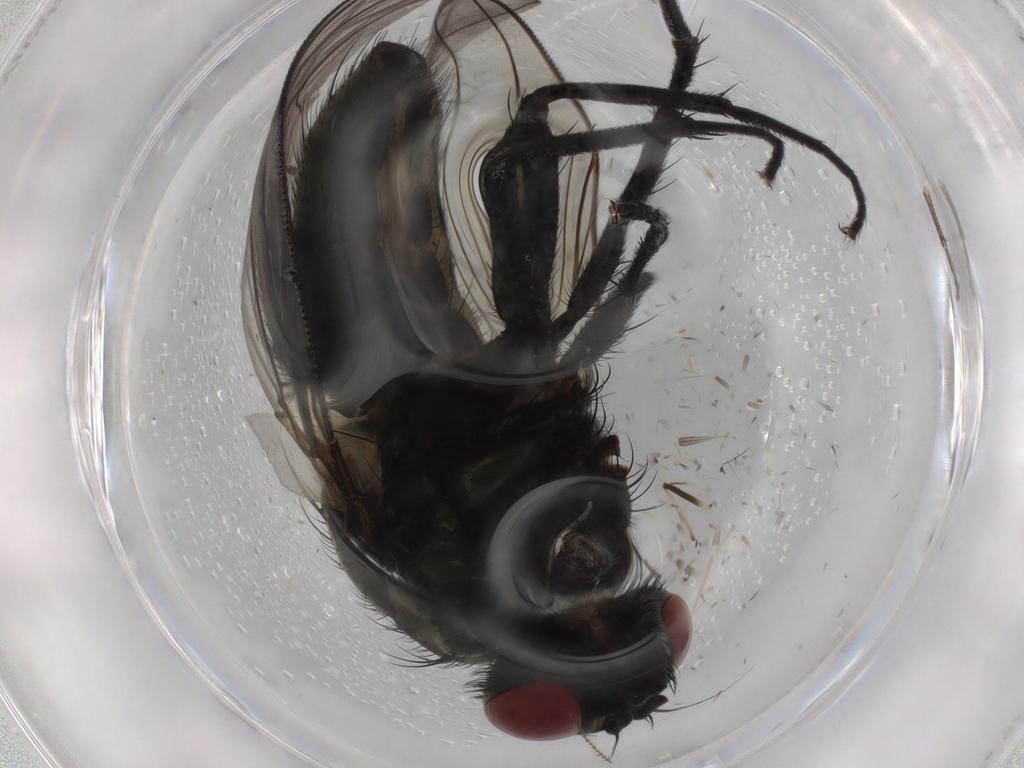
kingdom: Animalia
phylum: Arthropoda
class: Insecta
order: Diptera
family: Muscidae
